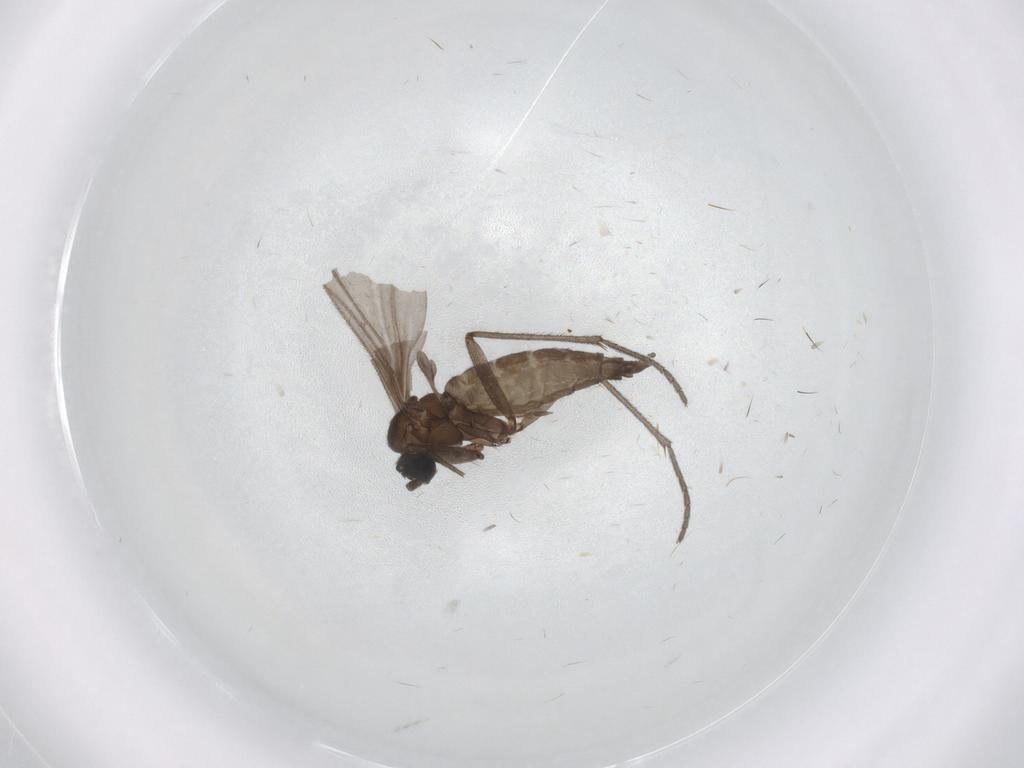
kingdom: Animalia
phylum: Arthropoda
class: Insecta
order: Diptera
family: Sciaridae
